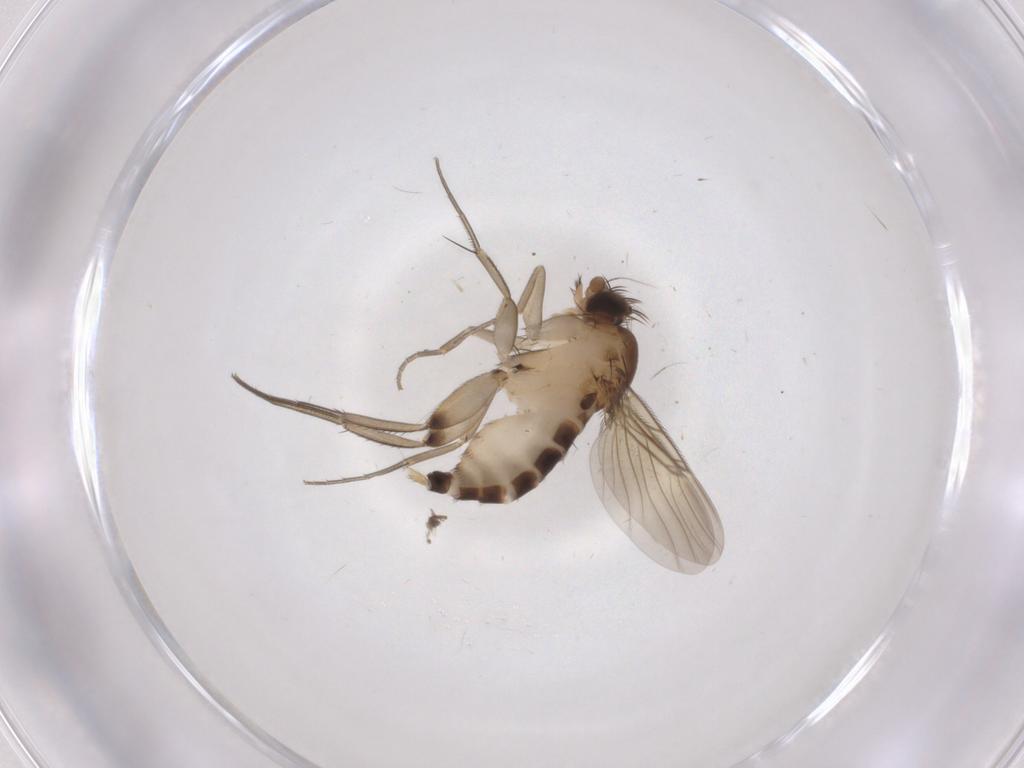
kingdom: Animalia
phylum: Arthropoda
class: Insecta
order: Diptera
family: Phoridae
